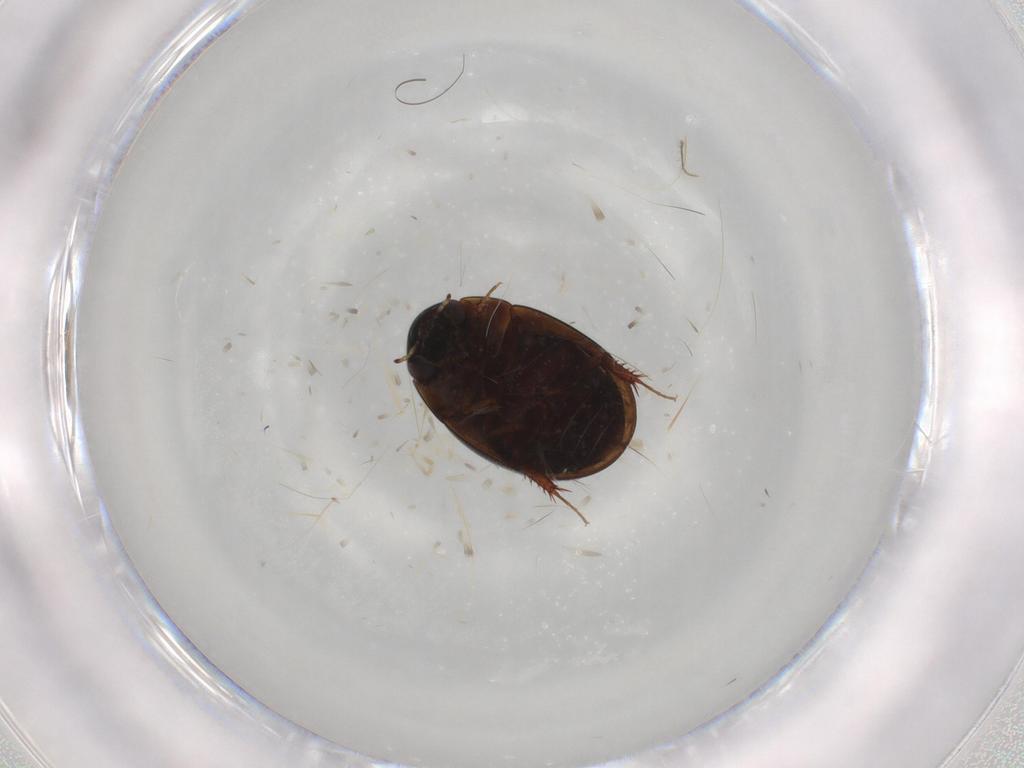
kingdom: Animalia
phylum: Arthropoda
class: Insecta
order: Coleoptera
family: Hydrophilidae
